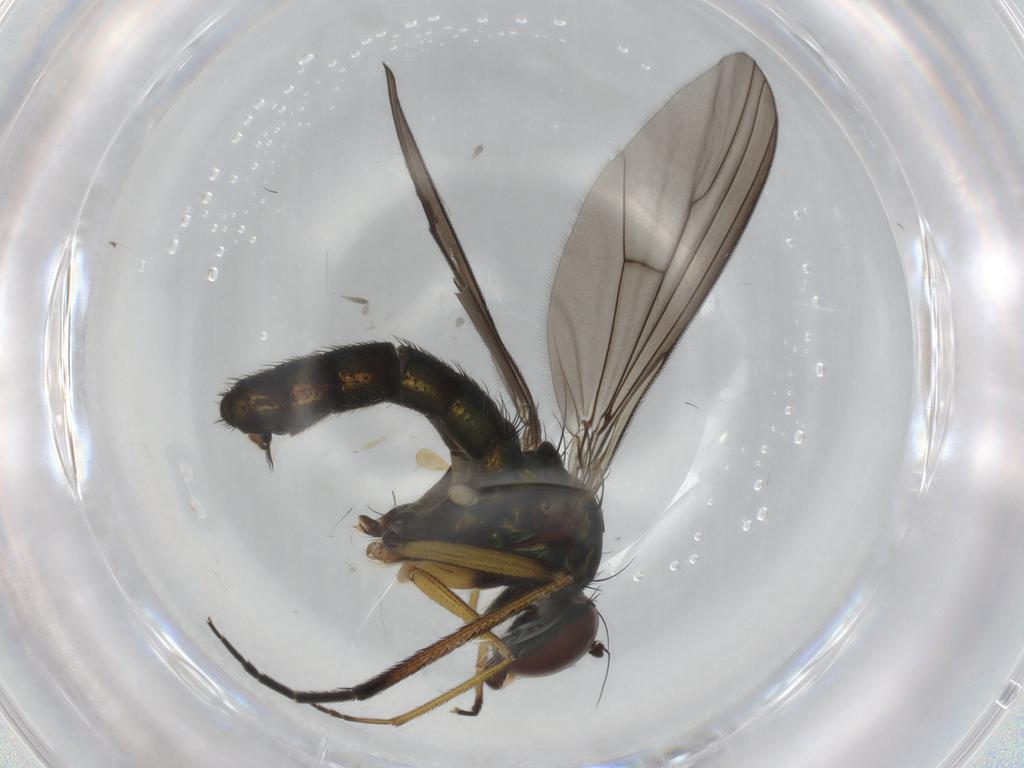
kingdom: Animalia
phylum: Arthropoda
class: Insecta
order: Diptera
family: Dolichopodidae
